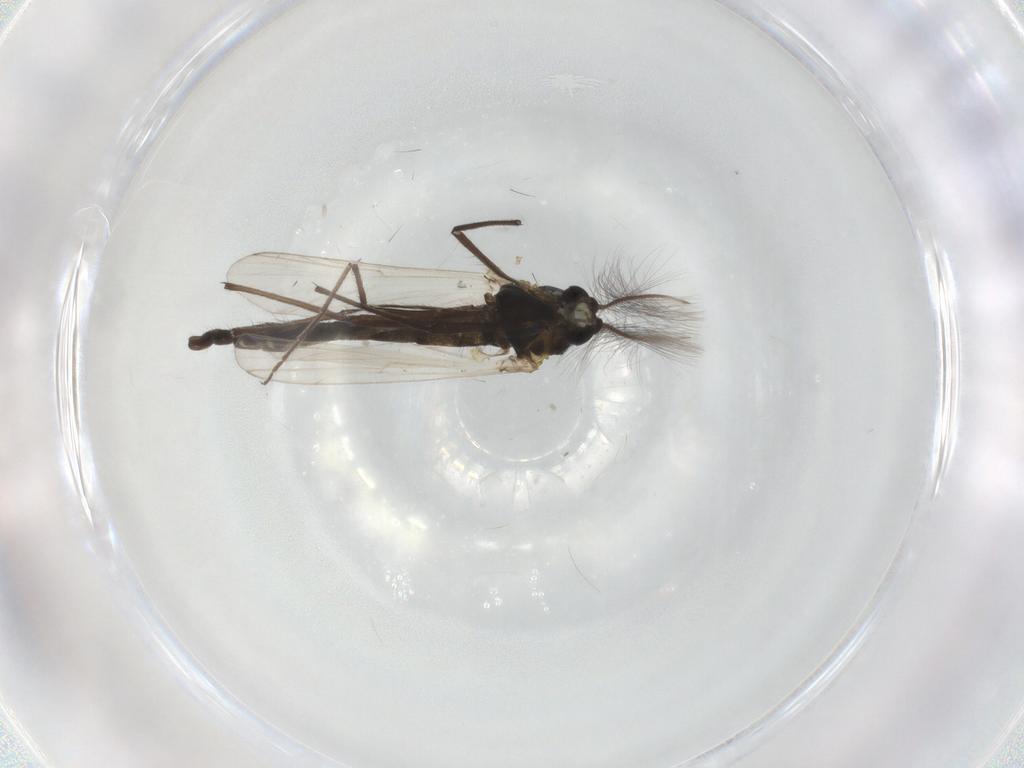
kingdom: Animalia
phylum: Arthropoda
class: Insecta
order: Diptera
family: Chironomidae
